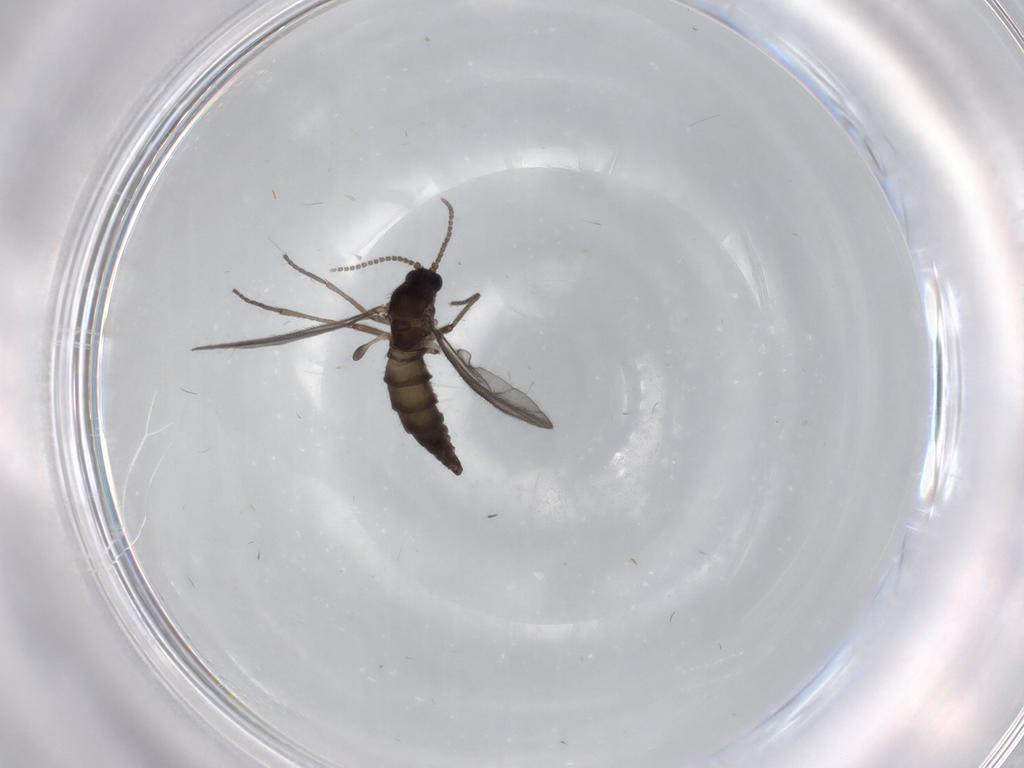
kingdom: Animalia
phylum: Arthropoda
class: Insecta
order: Diptera
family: Sciaridae
